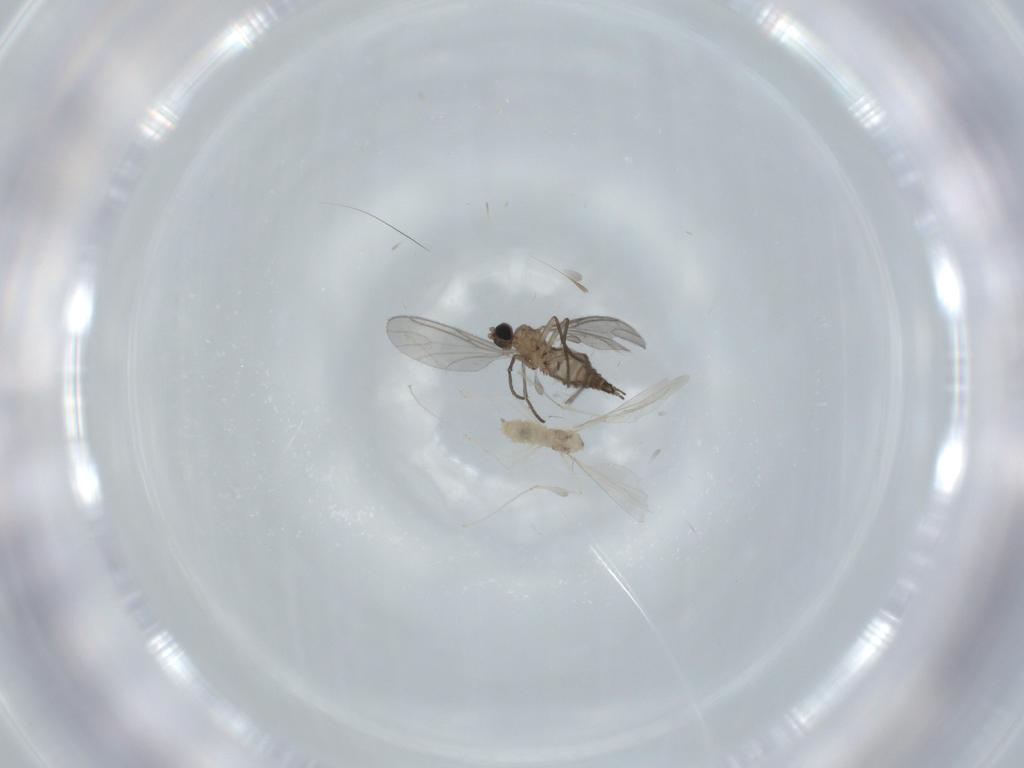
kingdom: Animalia
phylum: Arthropoda
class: Insecta
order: Diptera
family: Sciaridae
